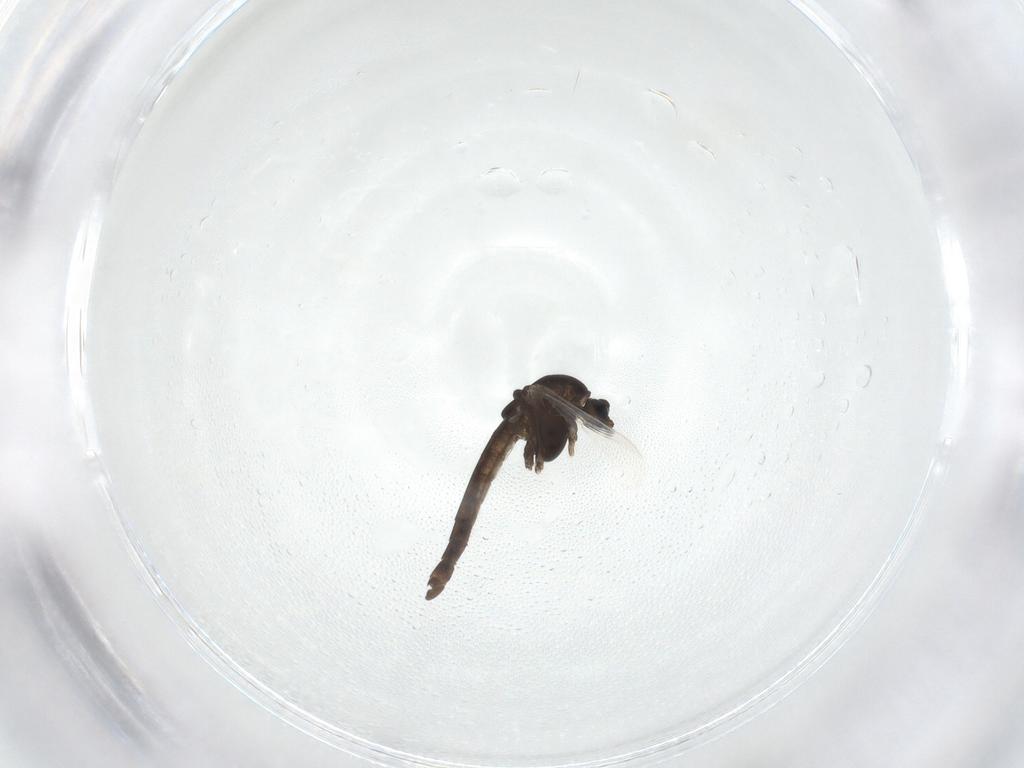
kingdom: Animalia
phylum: Arthropoda
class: Insecta
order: Diptera
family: Chironomidae
